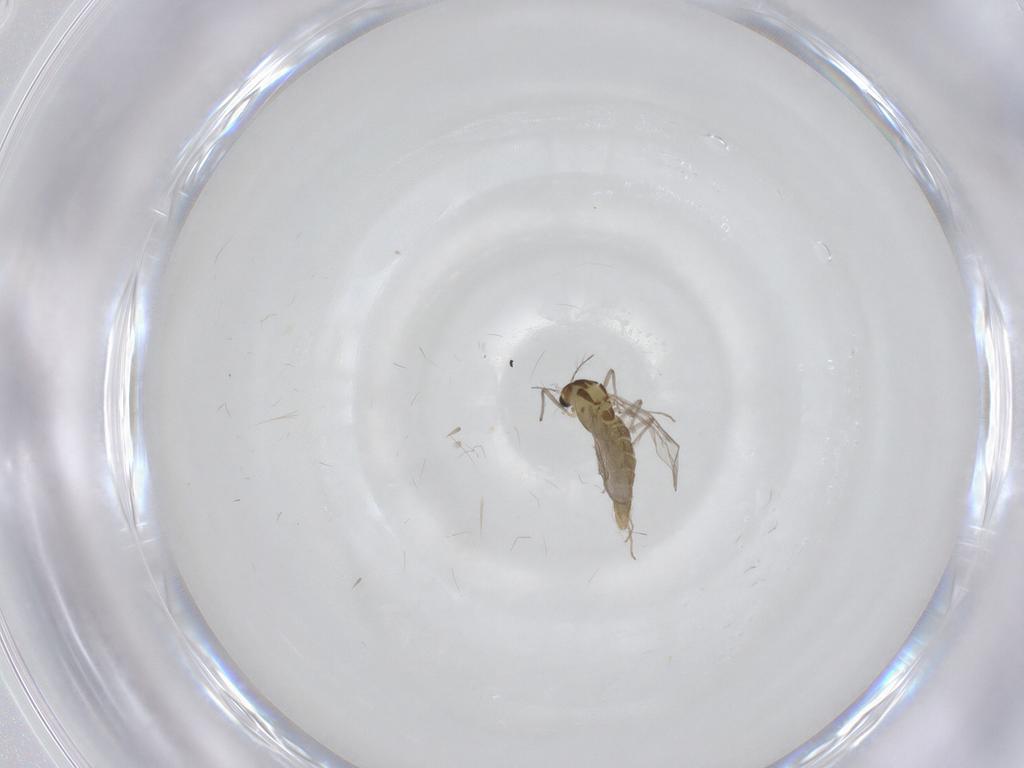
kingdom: Animalia
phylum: Arthropoda
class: Insecta
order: Diptera
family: Chironomidae
